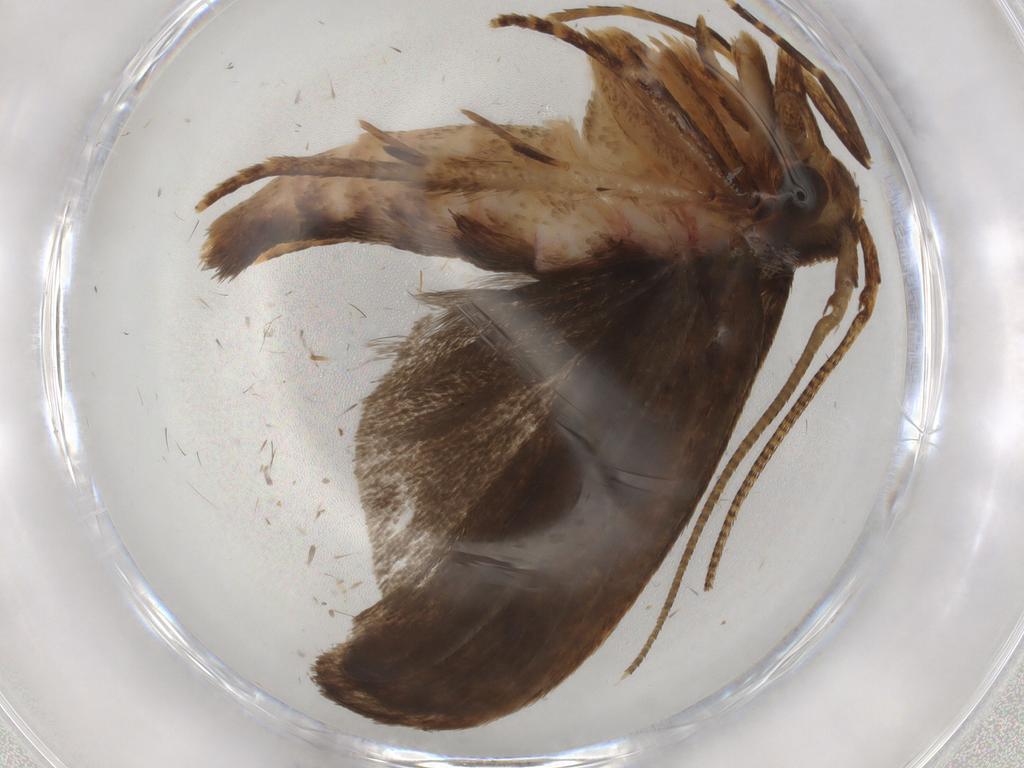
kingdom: Animalia
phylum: Arthropoda
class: Insecta
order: Lepidoptera
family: Autostichidae
